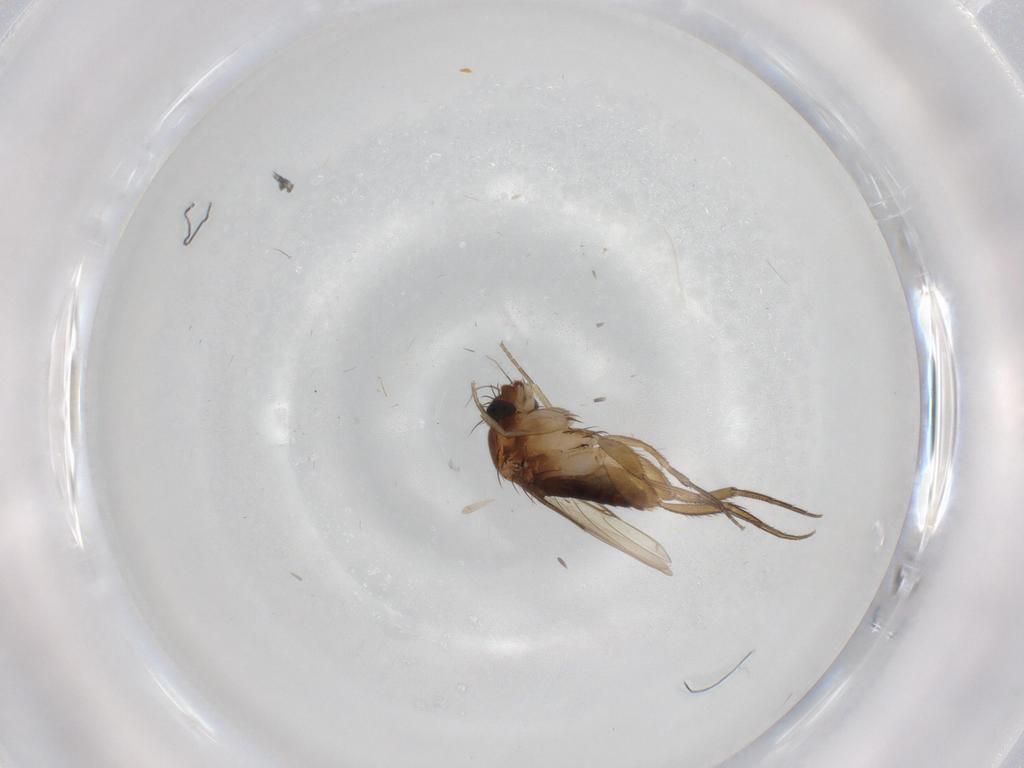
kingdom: Animalia
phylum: Arthropoda
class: Insecta
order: Diptera
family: Phoridae
